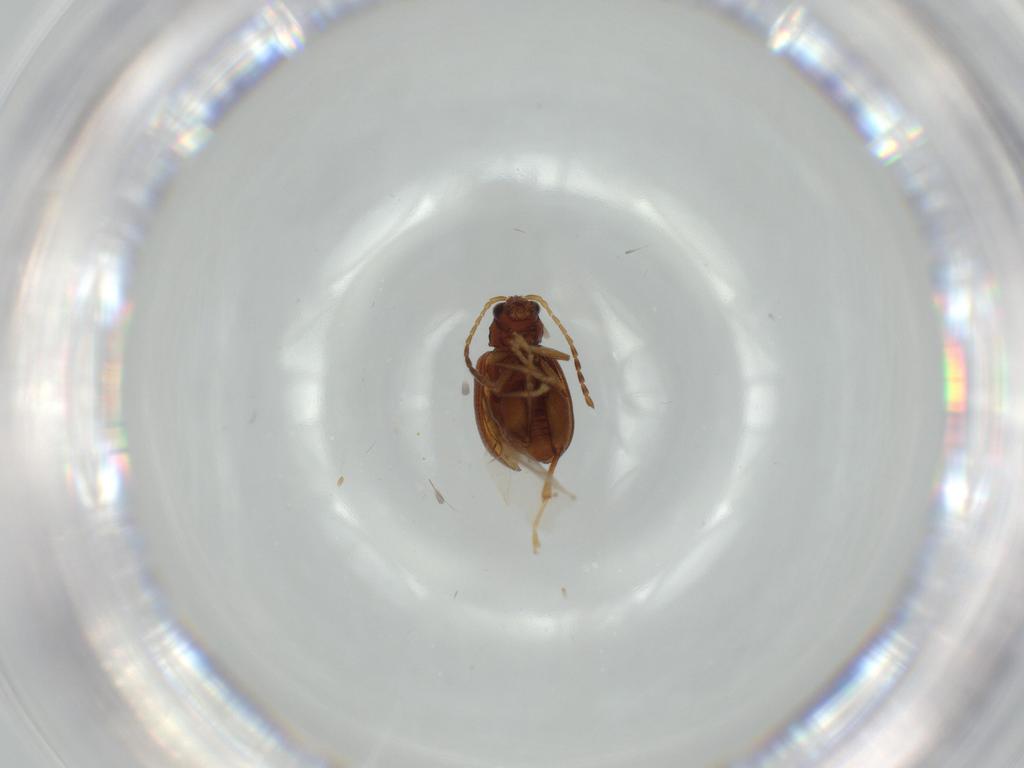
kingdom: Animalia
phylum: Arthropoda
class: Insecta
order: Coleoptera
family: Chrysomelidae
